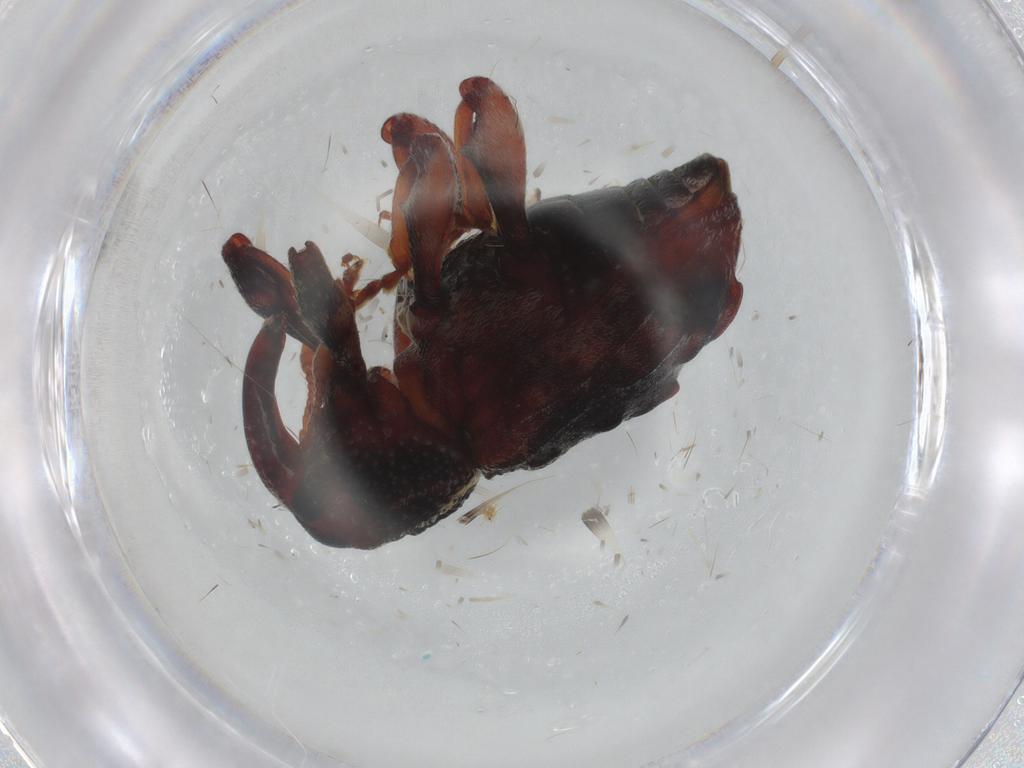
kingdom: Animalia
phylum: Arthropoda
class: Insecta
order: Coleoptera
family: Curculionidae
